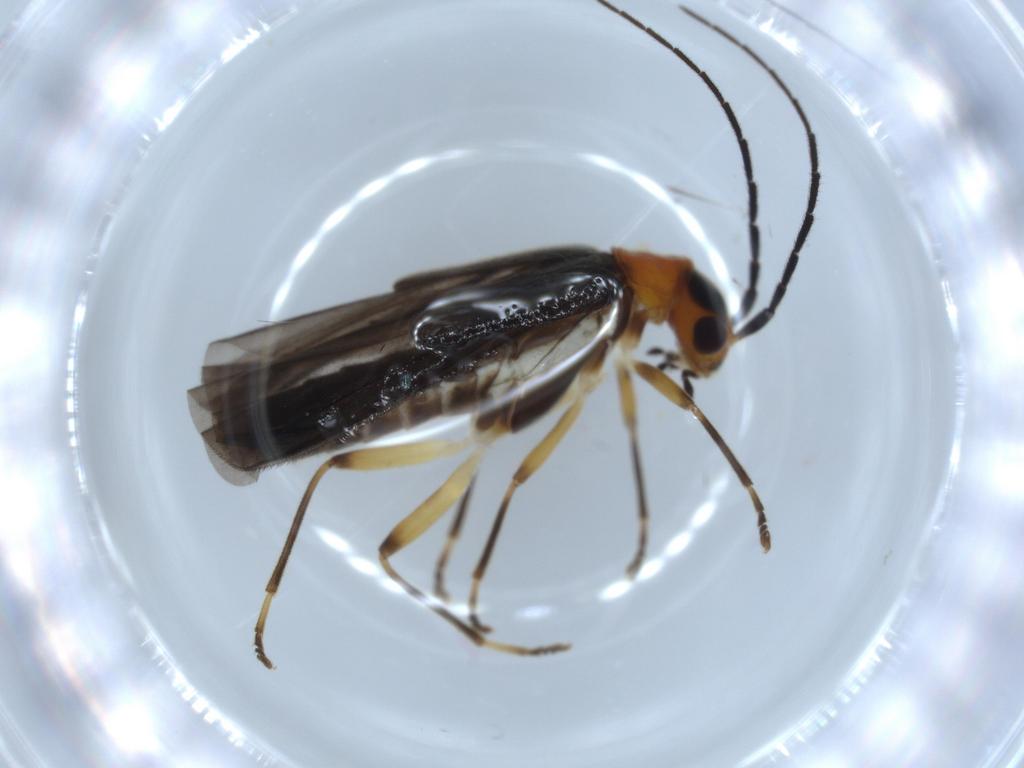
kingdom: Animalia
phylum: Arthropoda
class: Insecta
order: Coleoptera
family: Cantharidae
